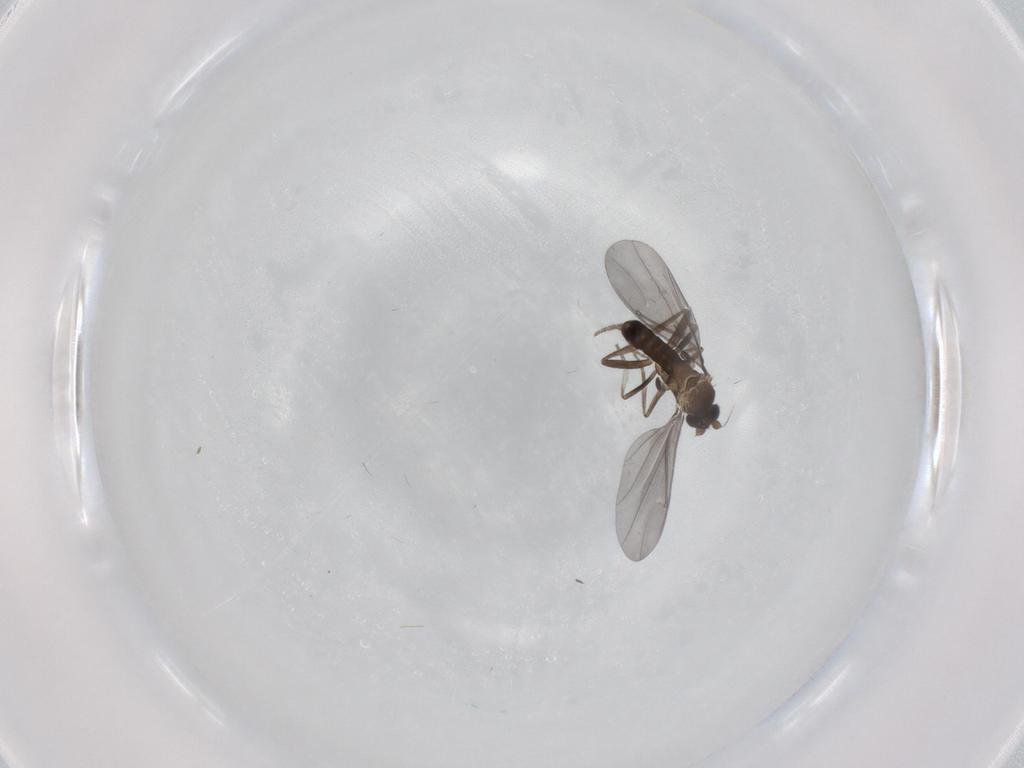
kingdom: Animalia
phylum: Arthropoda
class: Insecta
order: Diptera
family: Phoridae
